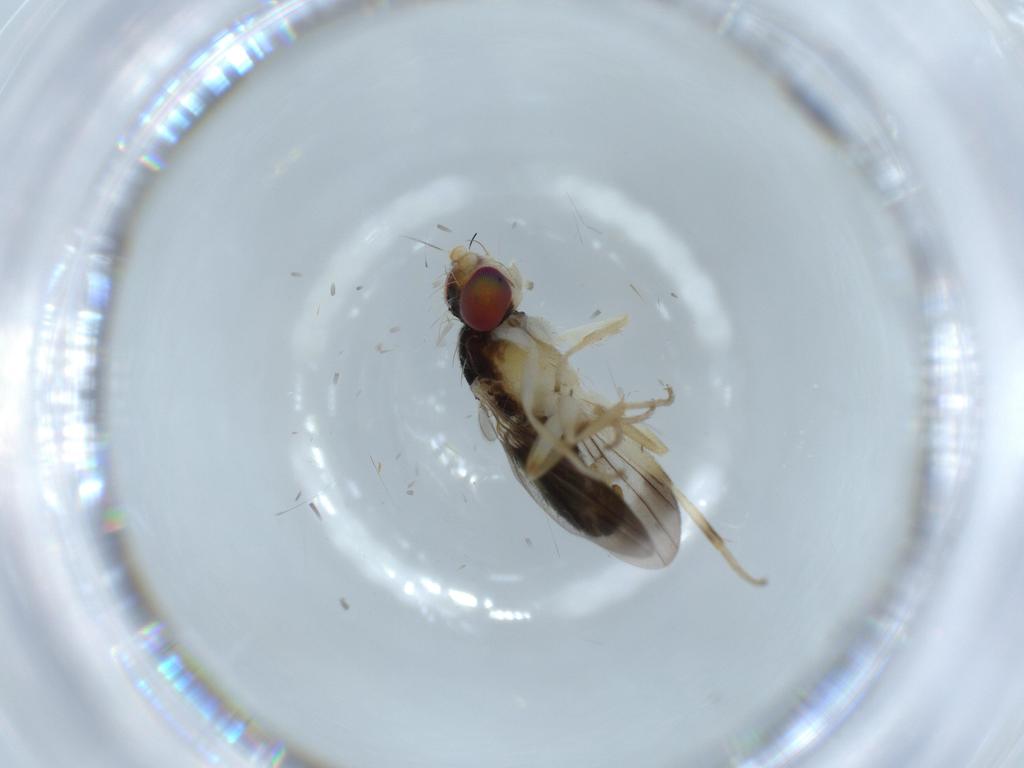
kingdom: Animalia
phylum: Arthropoda
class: Insecta
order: Diptera
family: Clusiidae
